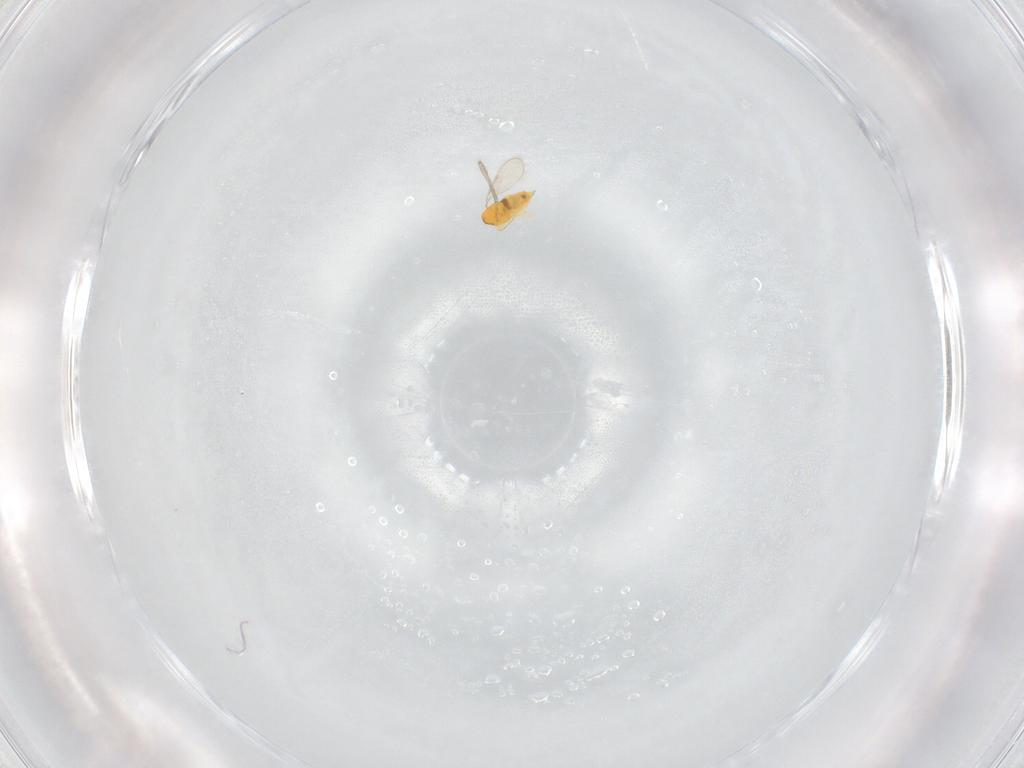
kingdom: Animalia
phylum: Arthropoda
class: Insecta
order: Hymenoptera
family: Aphelinidae
